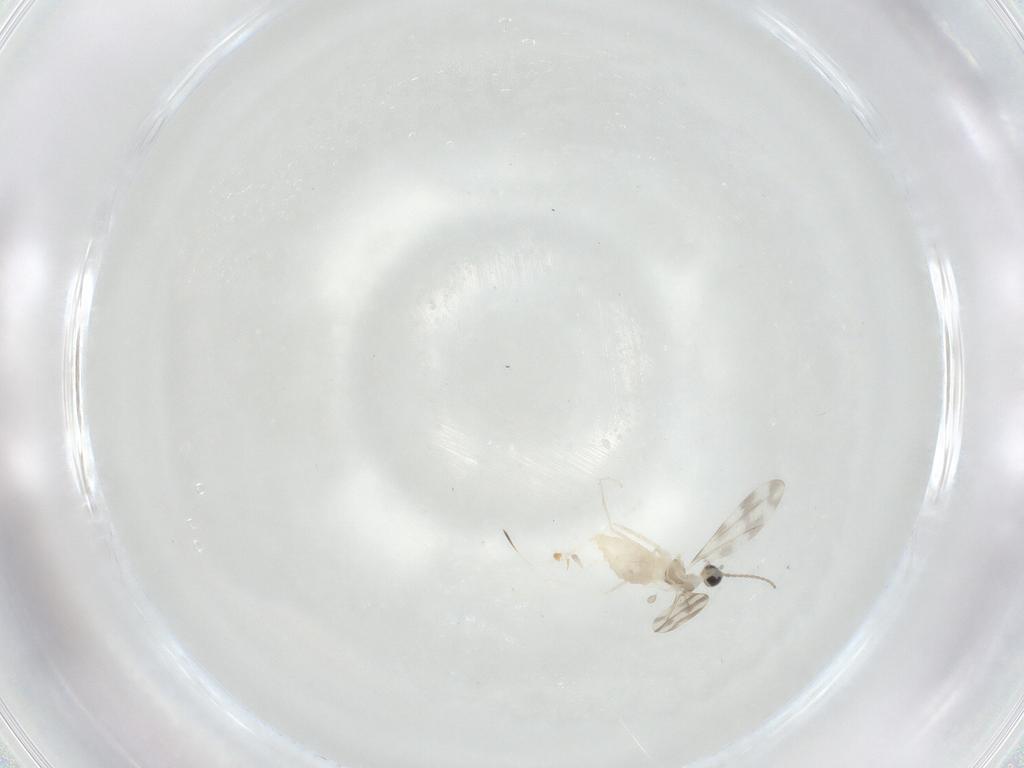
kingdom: Animalia
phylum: Arthropoda
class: Insecta
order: Diptera
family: Cecidomyiidae
